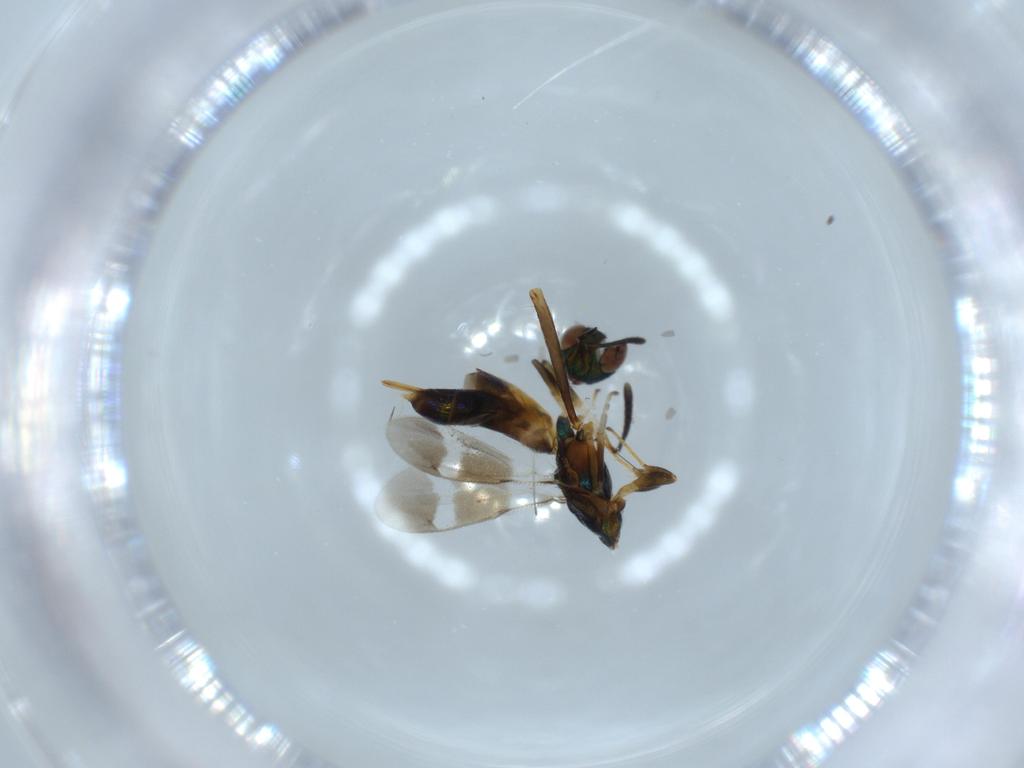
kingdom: Animalia
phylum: Arthropoda
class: Insecta
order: Hymenoptera
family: Eupelmidae
